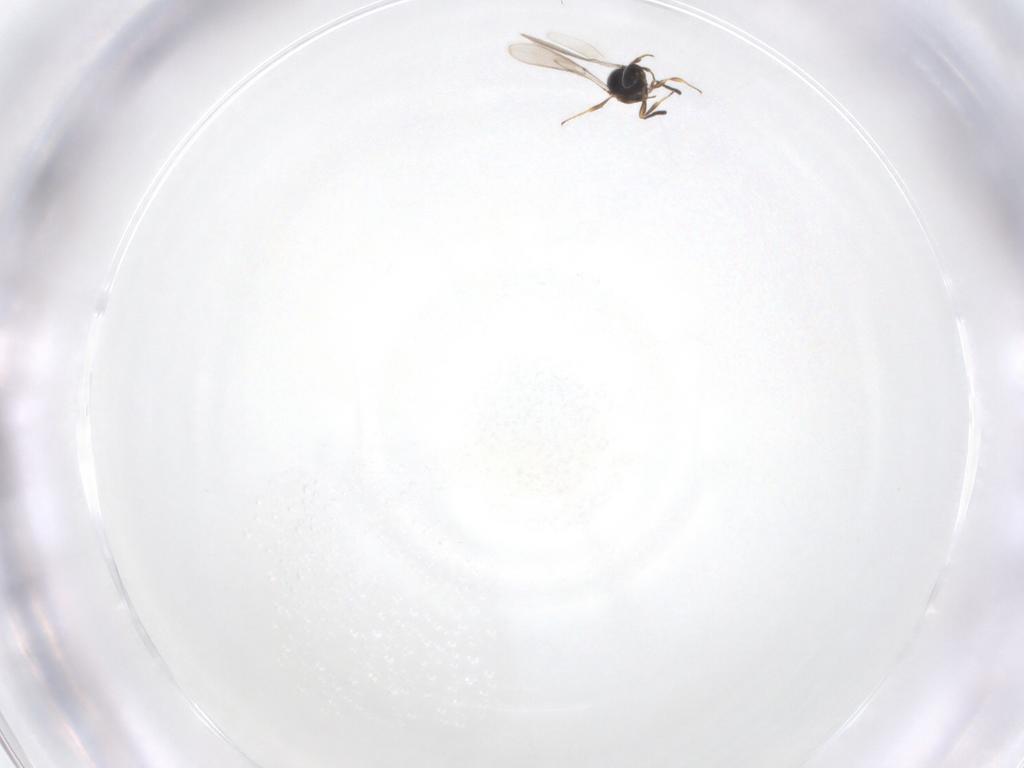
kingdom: Animalia
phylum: Arthropoda
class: Insecta
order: Hymenoptera
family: Scelionidae
